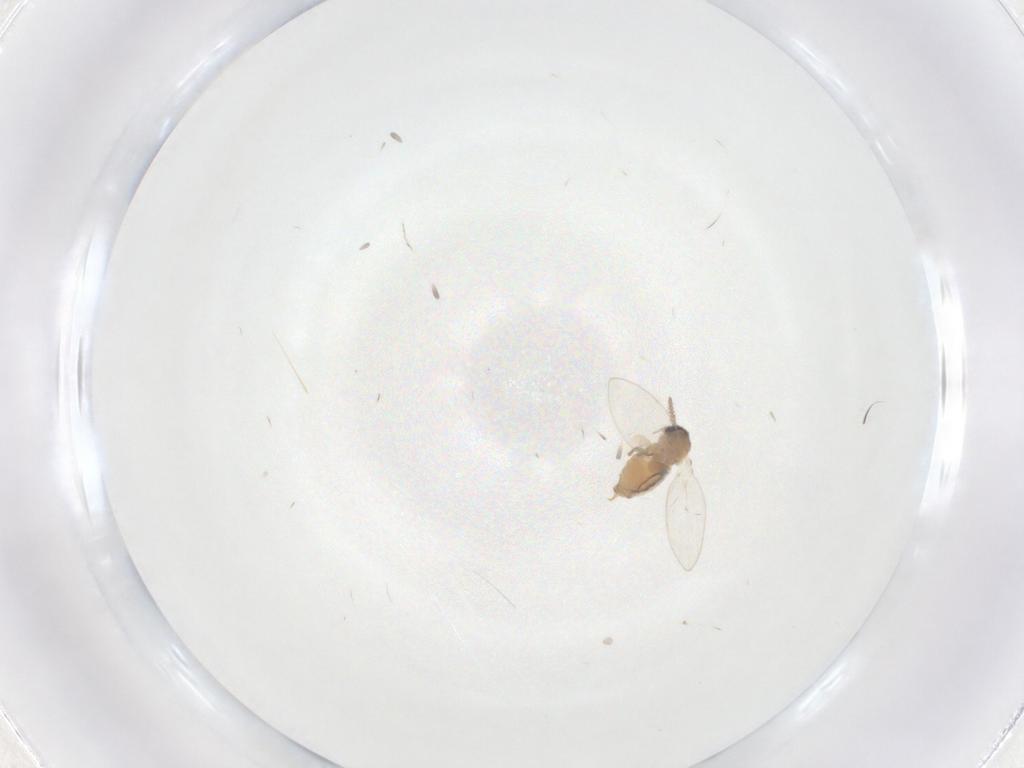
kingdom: Animalia
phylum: Arthropoda
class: Insecta
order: Diptera
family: Psychodidae
